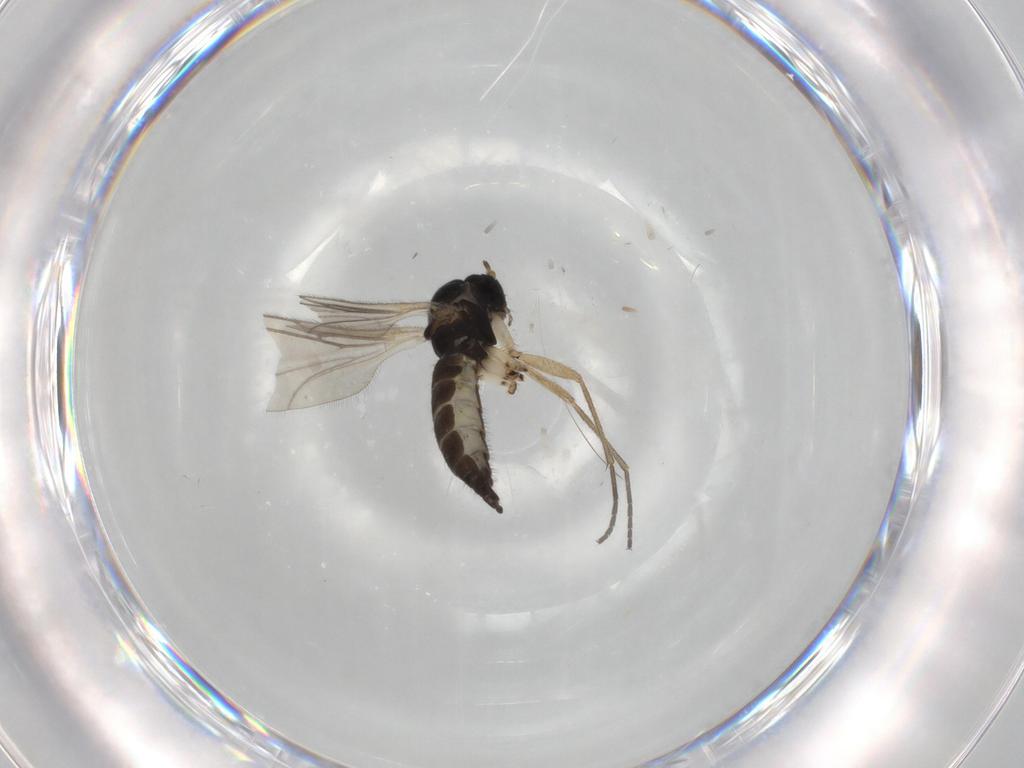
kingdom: Animalia
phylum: Arthropoda
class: Insecta
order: Diptera
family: Sciaridae
